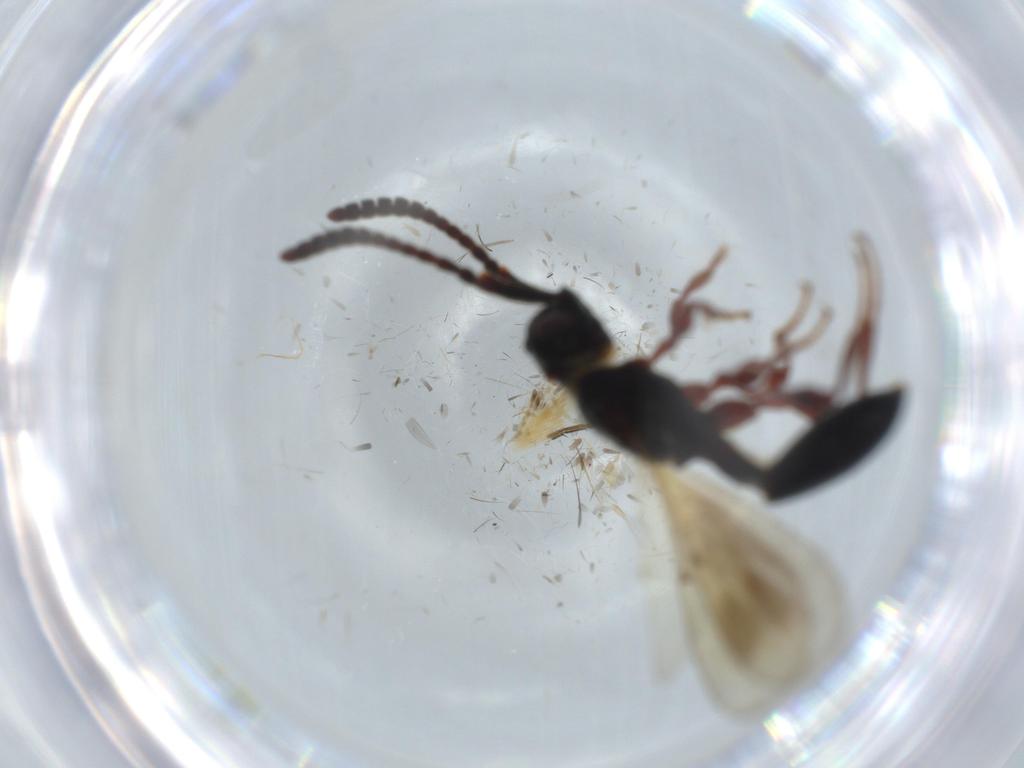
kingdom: Animalia
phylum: Arthropoda
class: Insecta
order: Hymenoptera
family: Diapriidae
